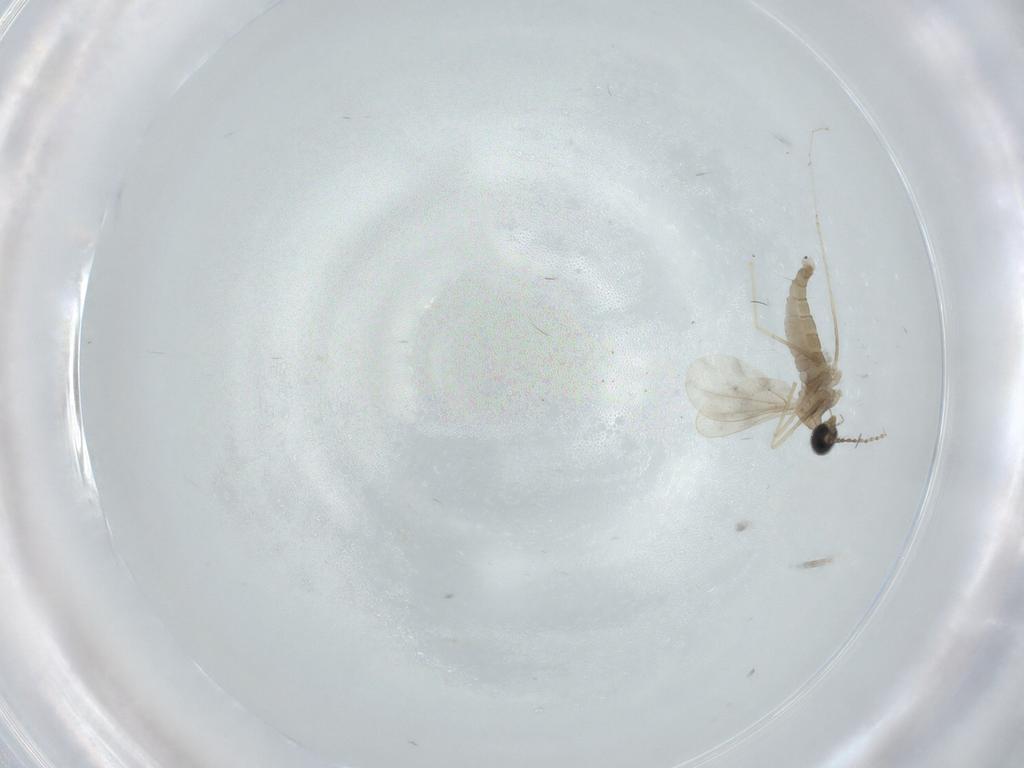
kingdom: Animalia
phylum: Arthropoda
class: Insecta
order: Diptera
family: Cecidomyiidae
